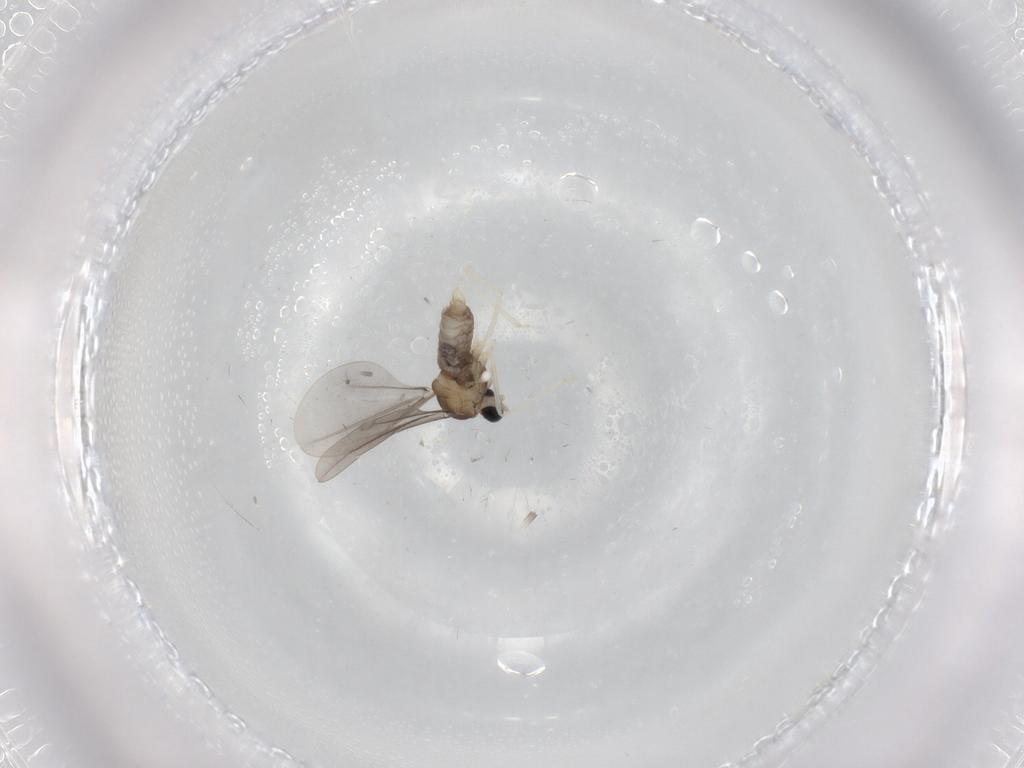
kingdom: Animalia
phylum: Arthropoda
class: Insecta
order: Diptera
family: Cecidomyiidae
